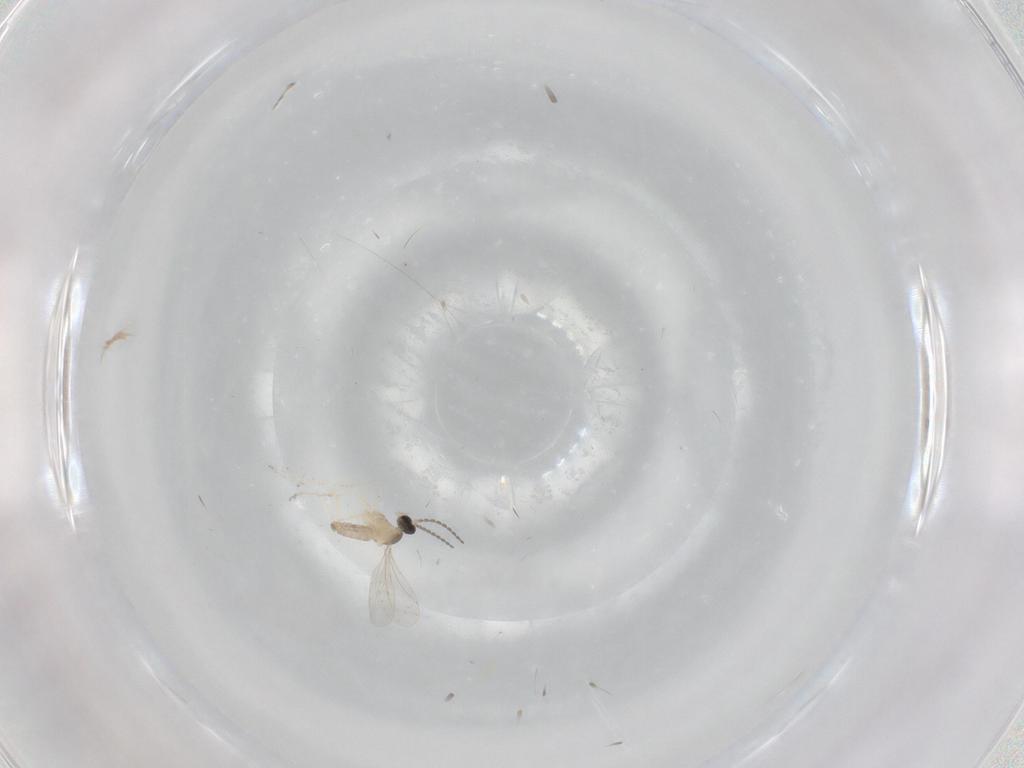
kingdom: Animalia
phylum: Arthropoda
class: Insecta
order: Diptera
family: Cecidomyiidae
